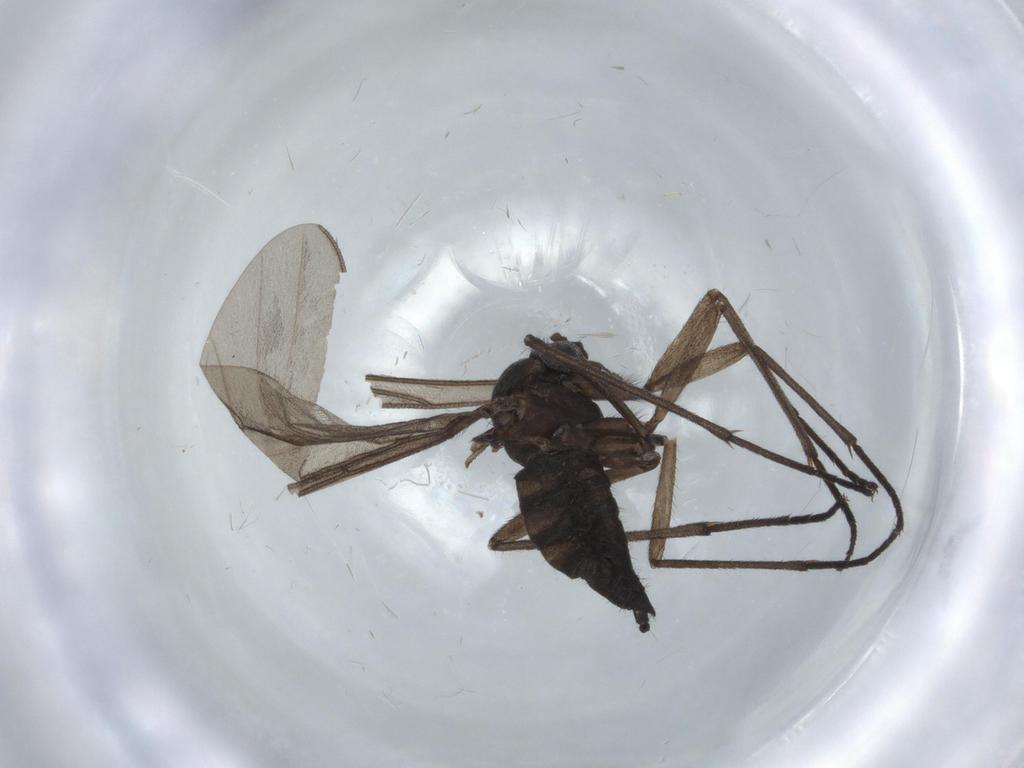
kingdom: Animalia
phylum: Arthropoda
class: Insecta
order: Diptera
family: Sciaridae
